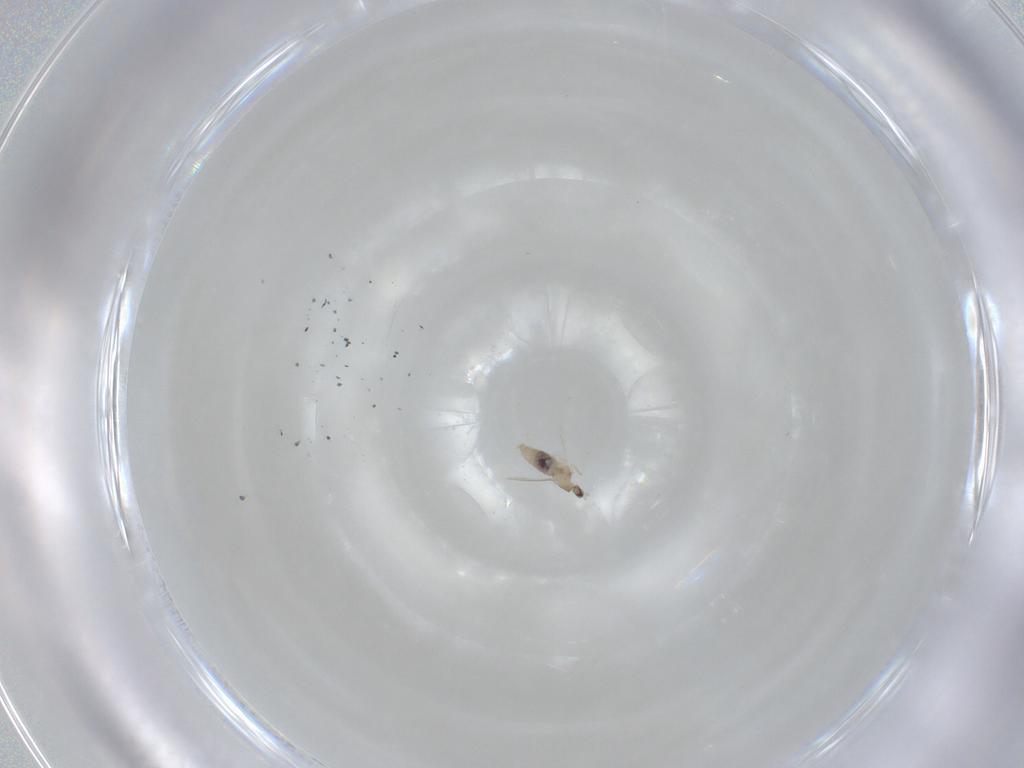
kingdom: Animalia
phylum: Arthropoda
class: Insecta
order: Diptera
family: Cecidomyiidae
